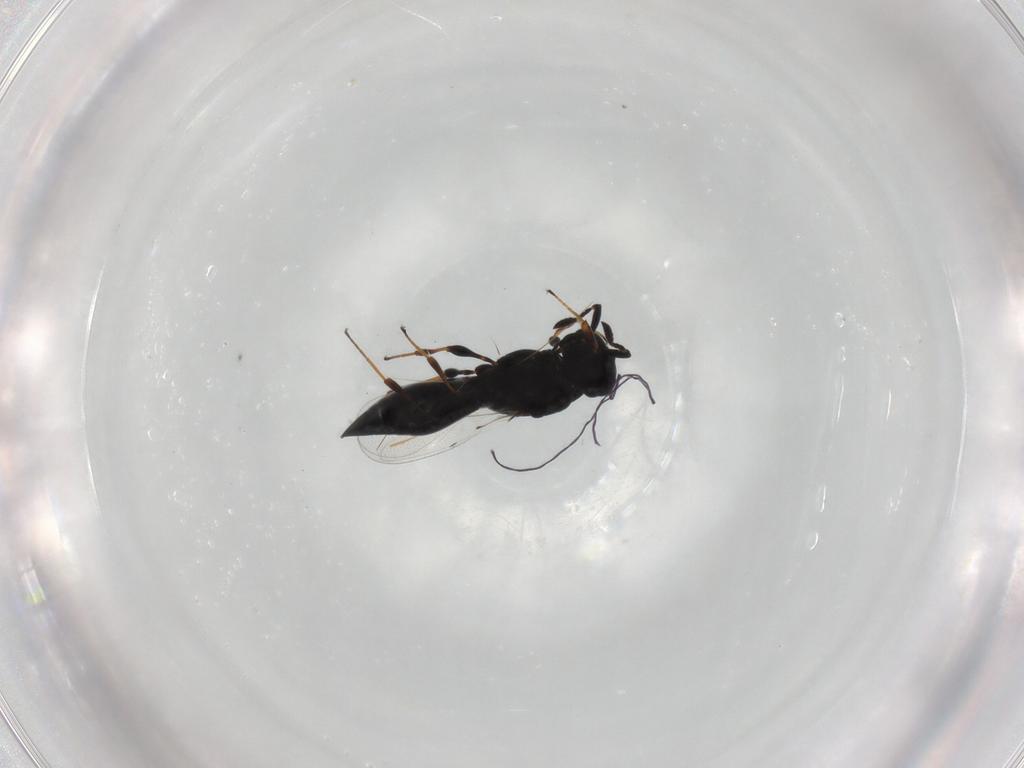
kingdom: Animalia
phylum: Arthropoda
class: Insecta
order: Hymenoptera
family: Platygastridae
